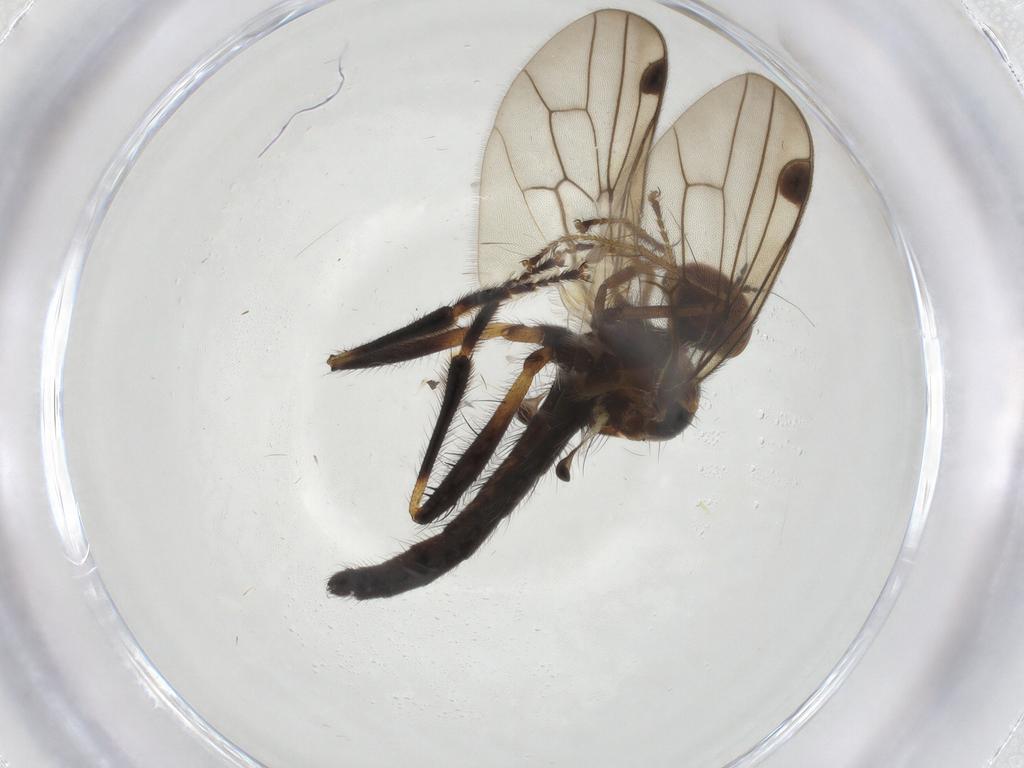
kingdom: Animalia
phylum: Arthropoda
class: Insecta
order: Diptera
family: Hybotidae
